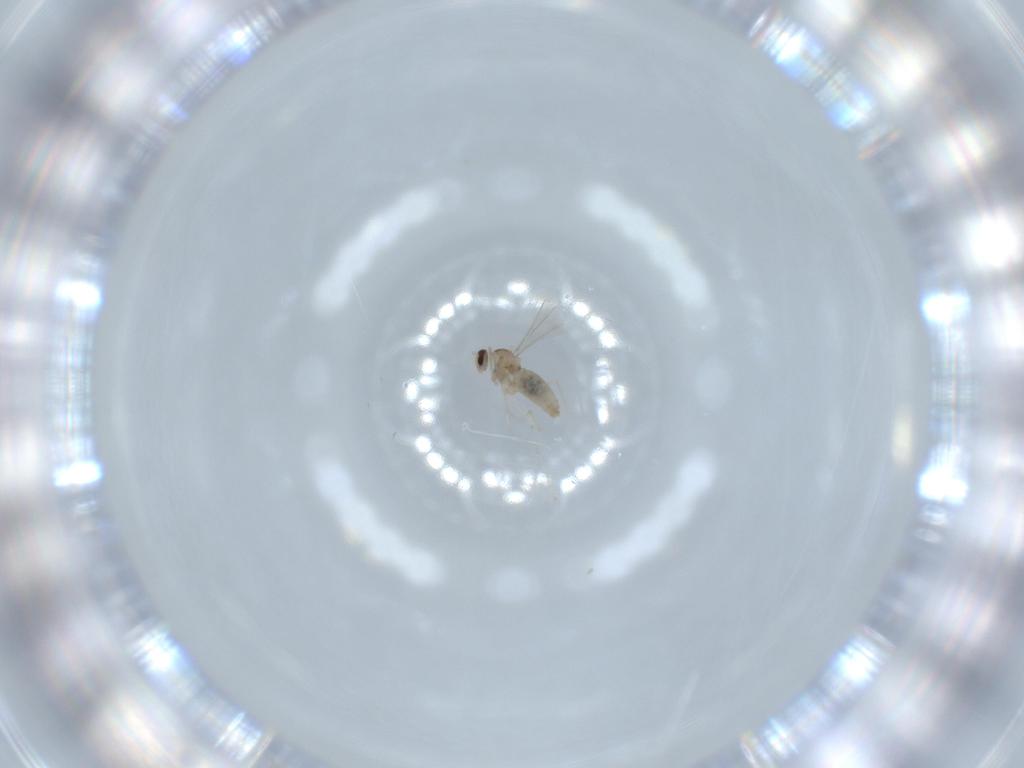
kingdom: Animalia
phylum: Arthropoda
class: Insecta
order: Diptera
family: Cecidomyiidae
